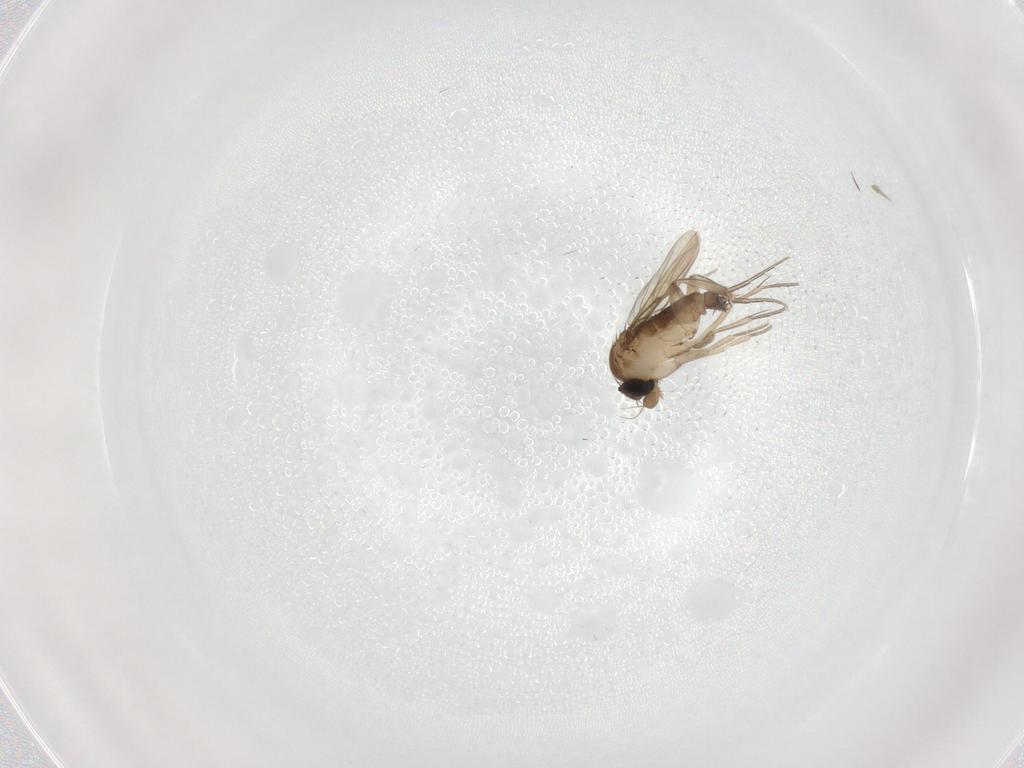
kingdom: Animalia
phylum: Arthropoda
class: Insecta
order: Diptera
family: Phoridae
